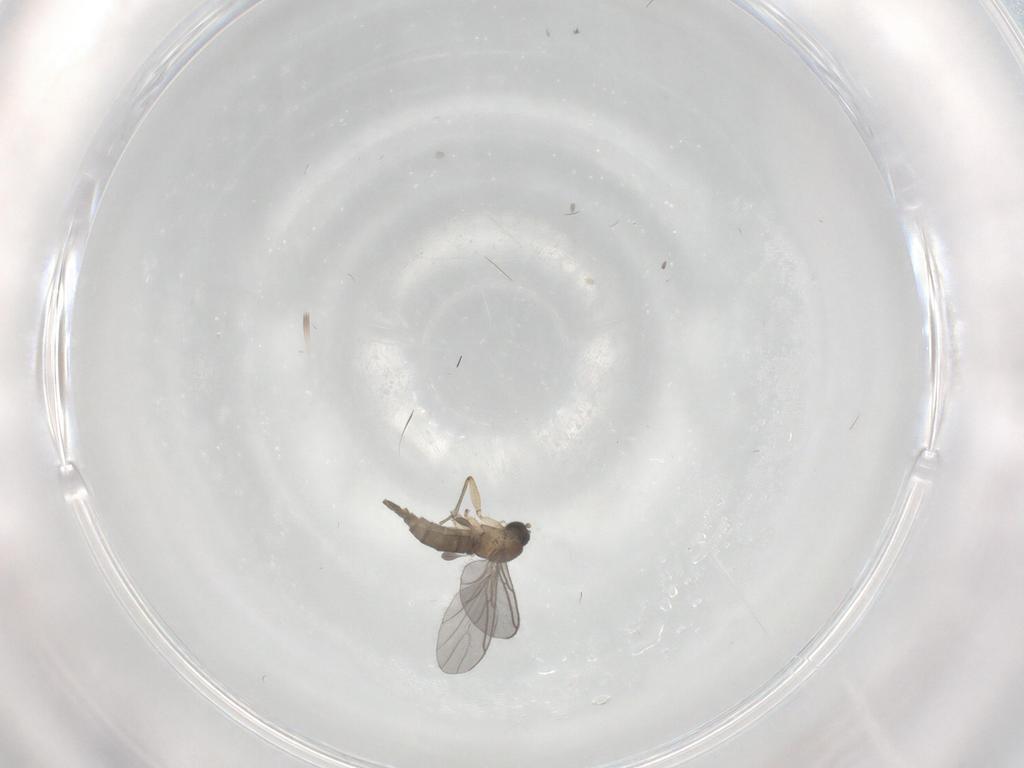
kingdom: Animalia
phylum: Arthropoda
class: Insecta
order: Diptera
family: Sciaridae
